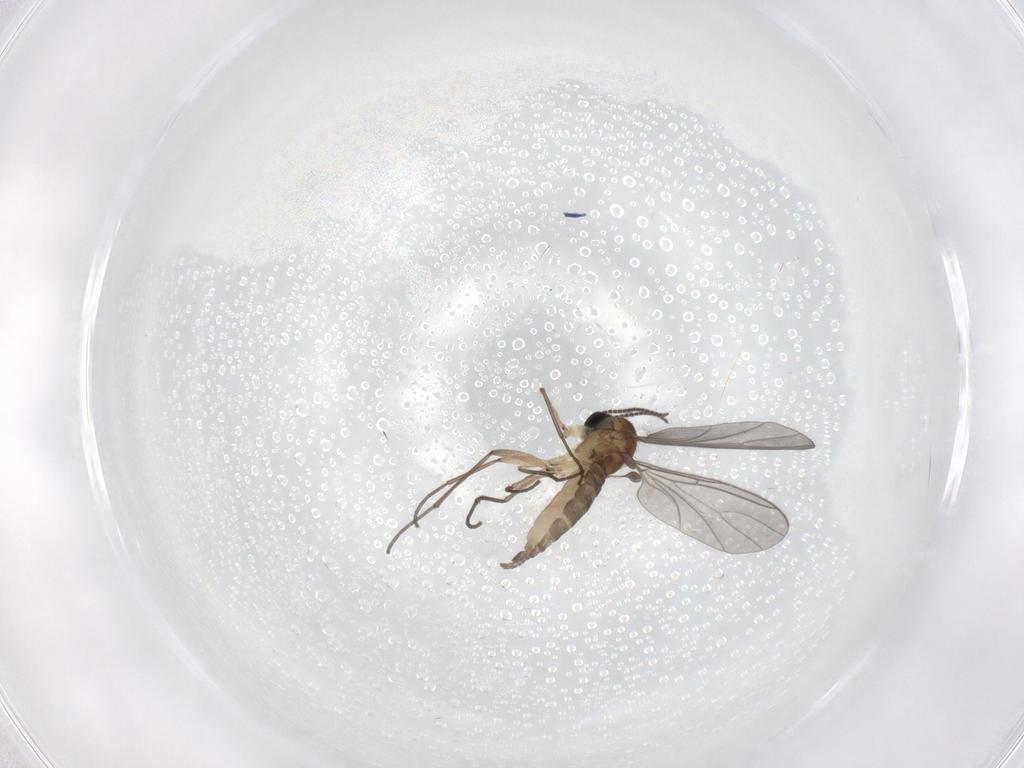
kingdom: Animalia
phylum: Arthropoda
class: Insecta
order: Diptera
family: Sciaridae
